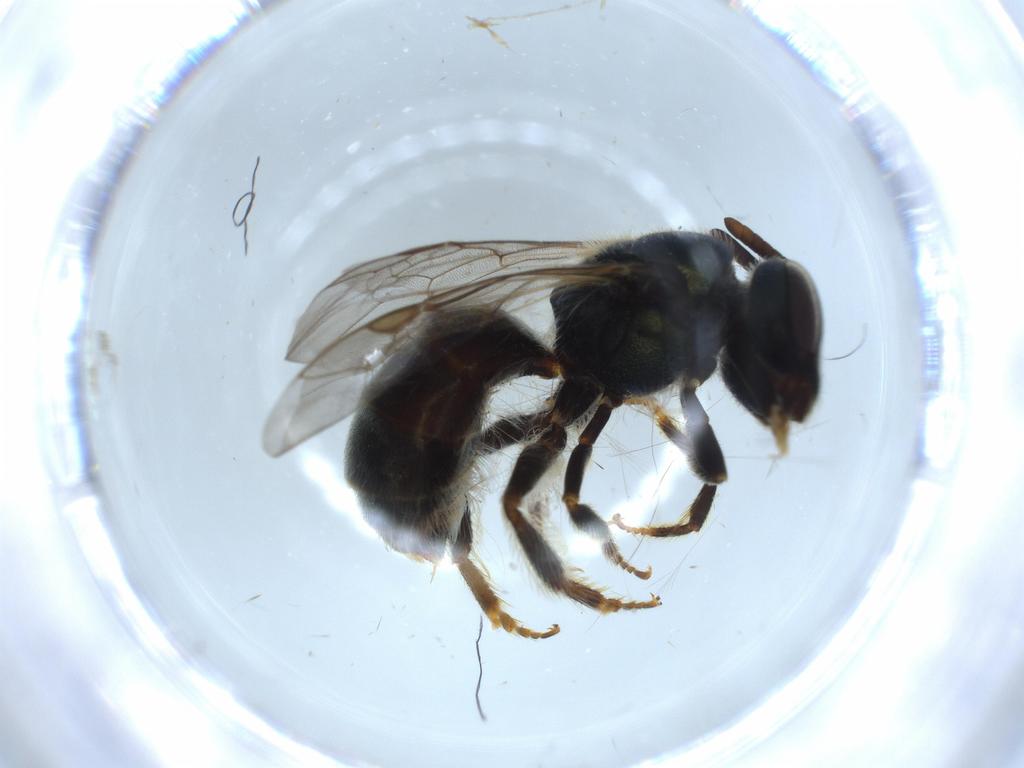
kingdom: Animalia
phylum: Arthropoda
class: Insecta
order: Hymenoptera
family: Halictidae
